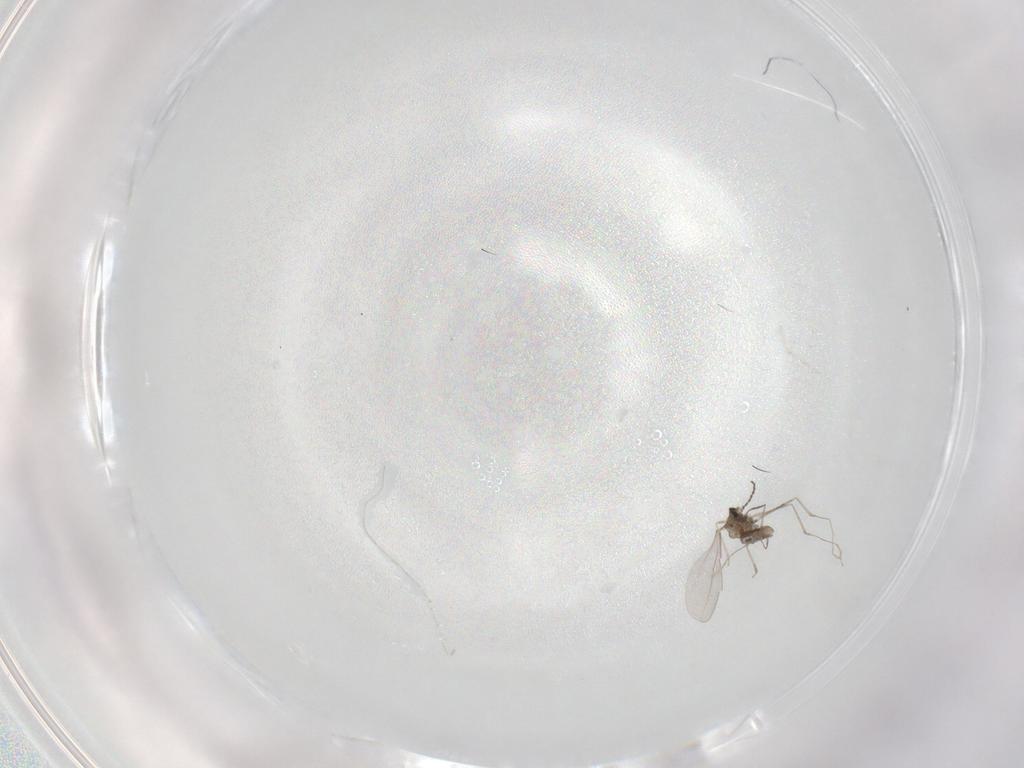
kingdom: Animalia
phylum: Arthropoda
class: Insecta
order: Diptera
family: Cecidomyiidae
